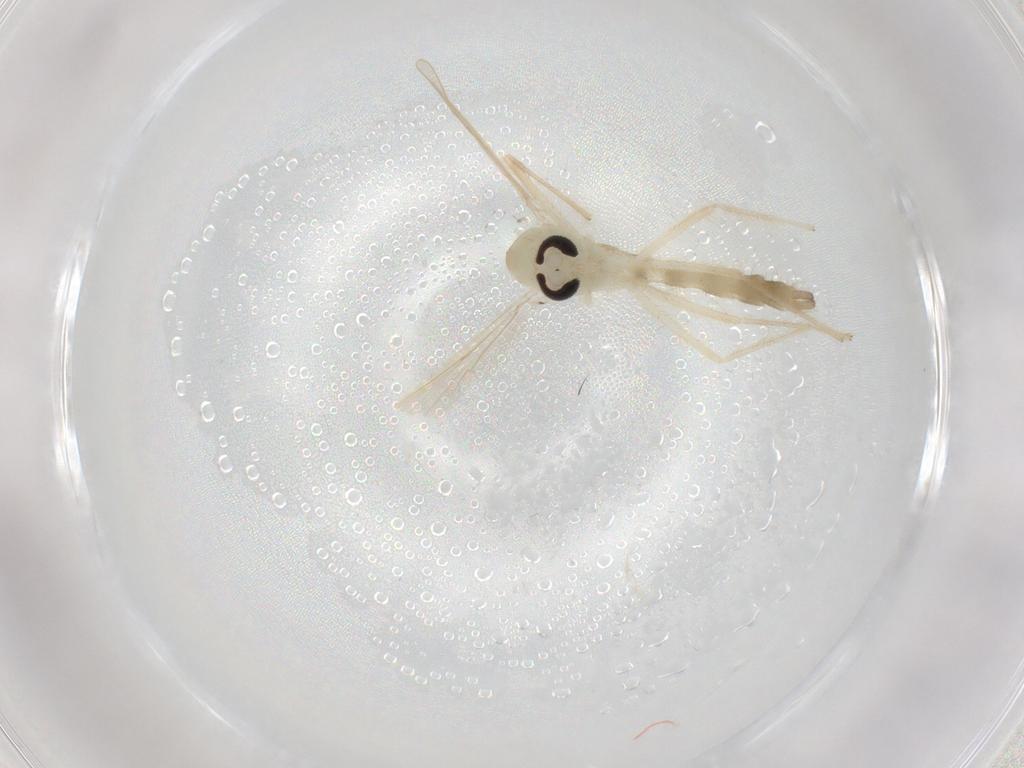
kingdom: Animalia
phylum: Arthropoda
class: Insecta
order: Diptera
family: Chironomidae
